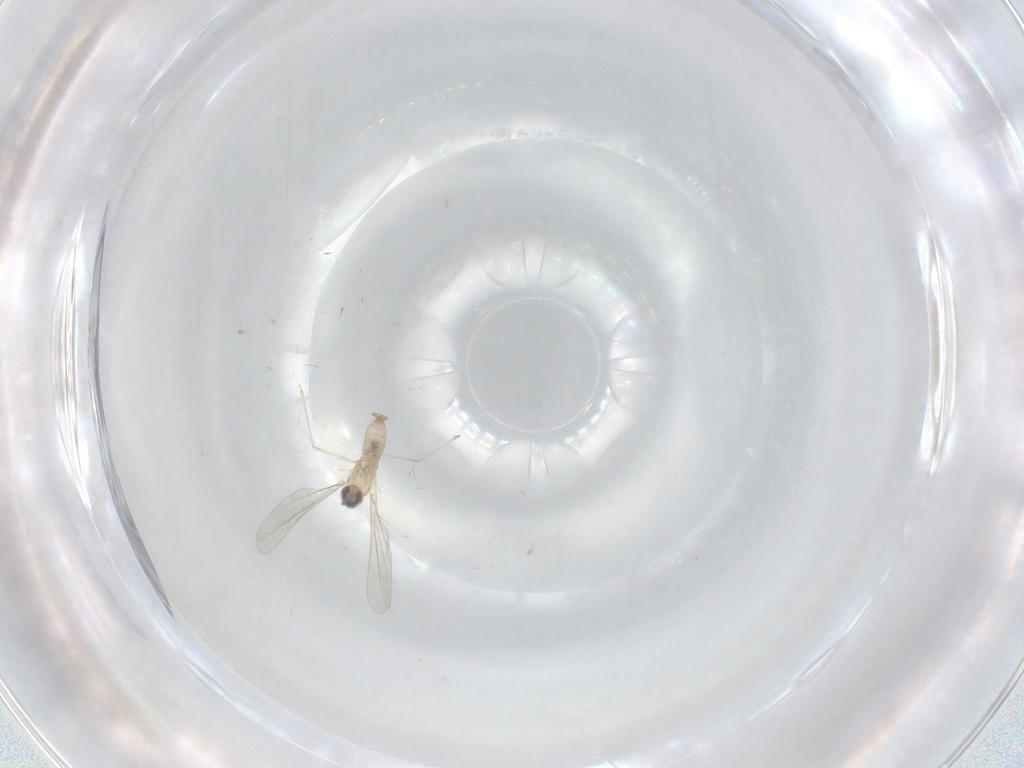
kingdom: Animalia
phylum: Arthropoda
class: Insecta
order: Diptera
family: Cecidomyiidae
